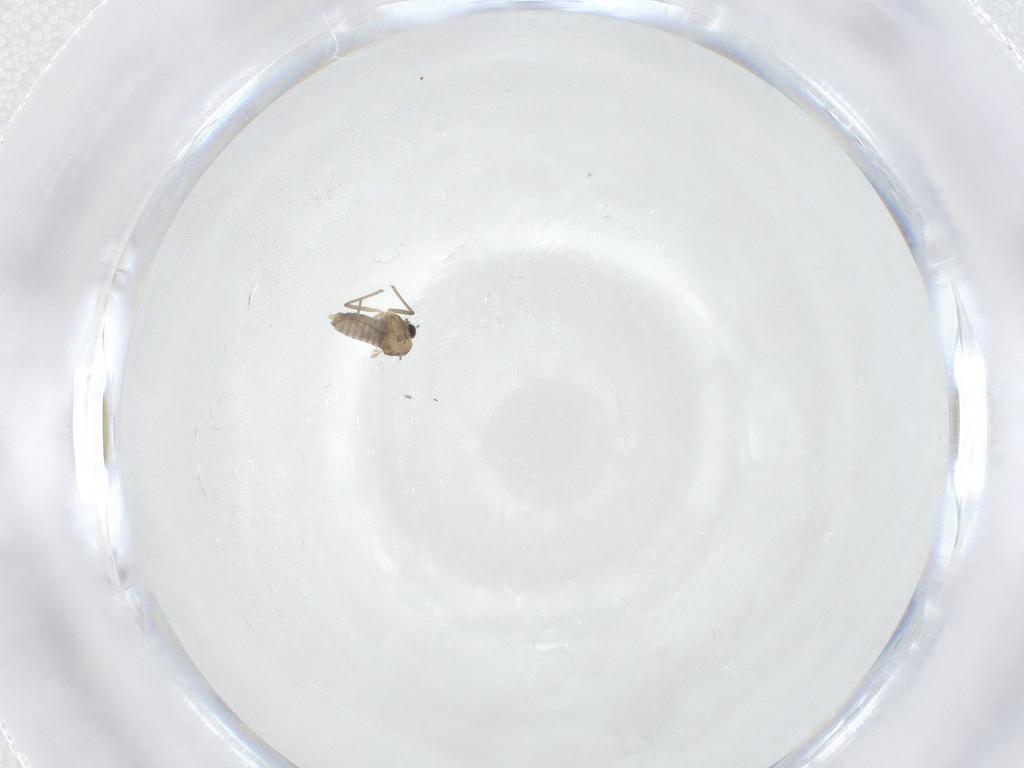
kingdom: Animalia
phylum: Arthropoda
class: Insecta
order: Diptera
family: Chironomidae
